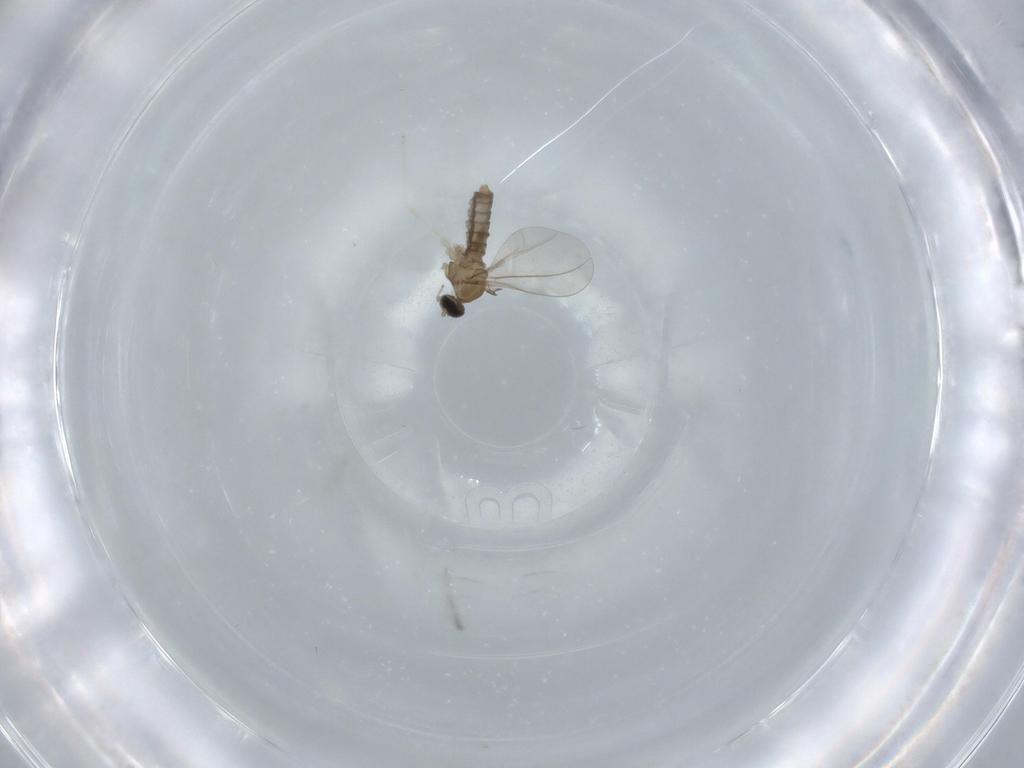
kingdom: Animalia
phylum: Arthropoda
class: Insecta
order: Diptera
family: Cecidomyiidae
